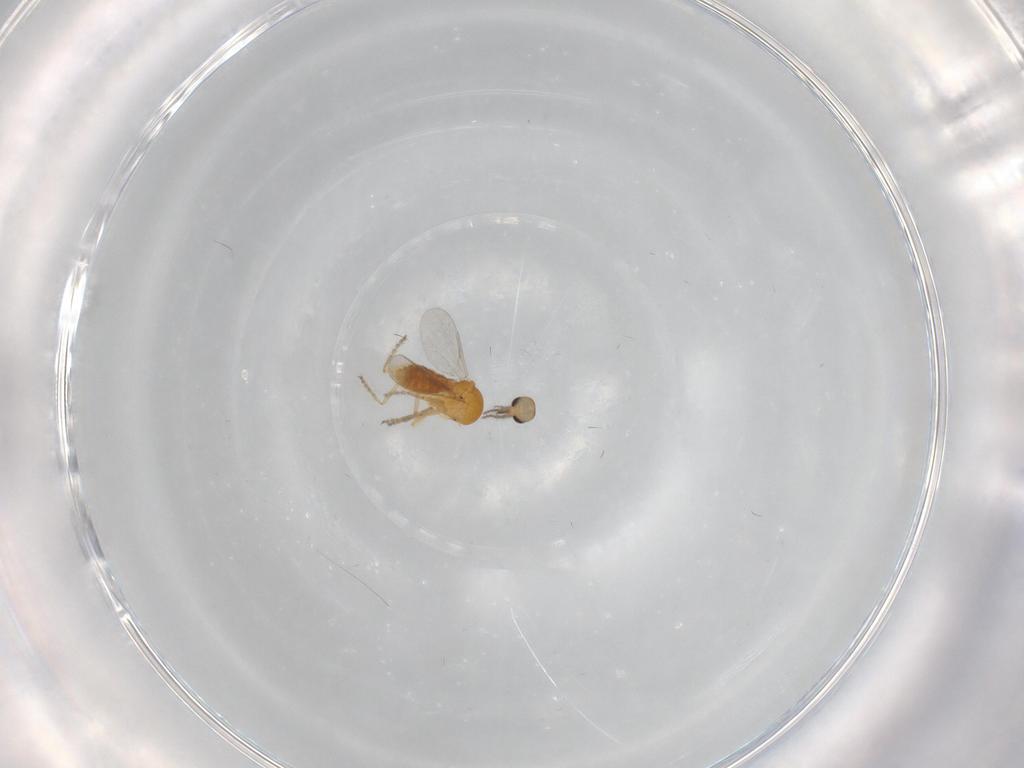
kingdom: Animalia
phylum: Arthropoda
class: Insecta
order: Diptera
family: Ceratopogonidae
